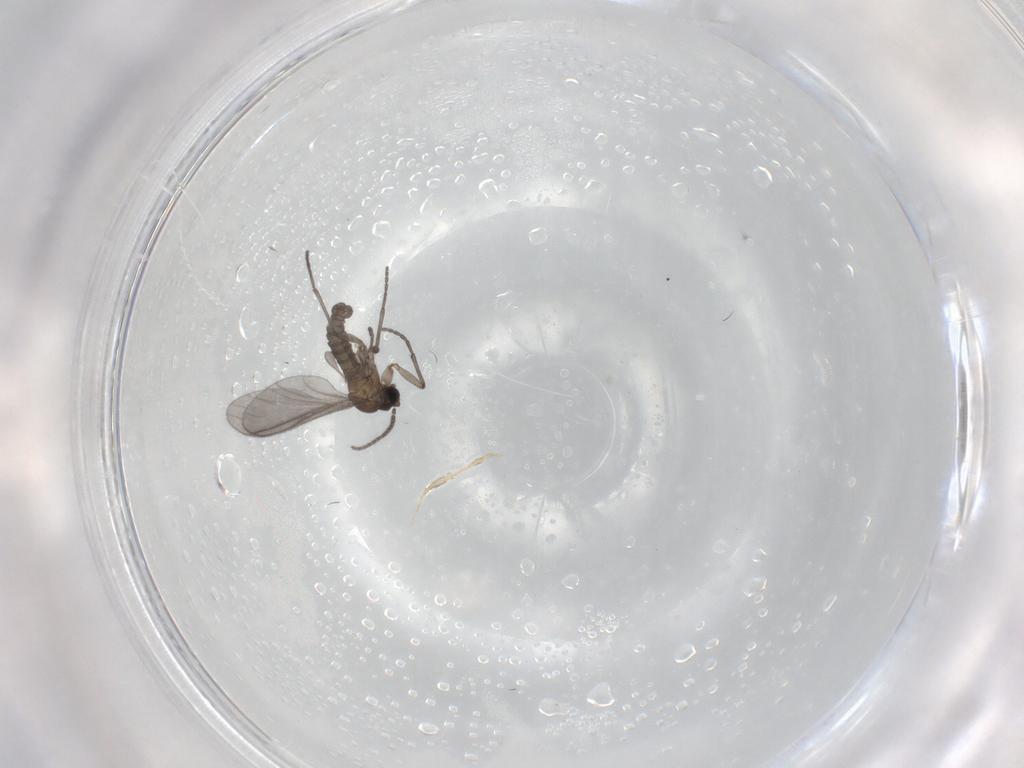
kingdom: Animalia
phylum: Arthropoda
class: Insecta
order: Diptera
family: Sciaridae
